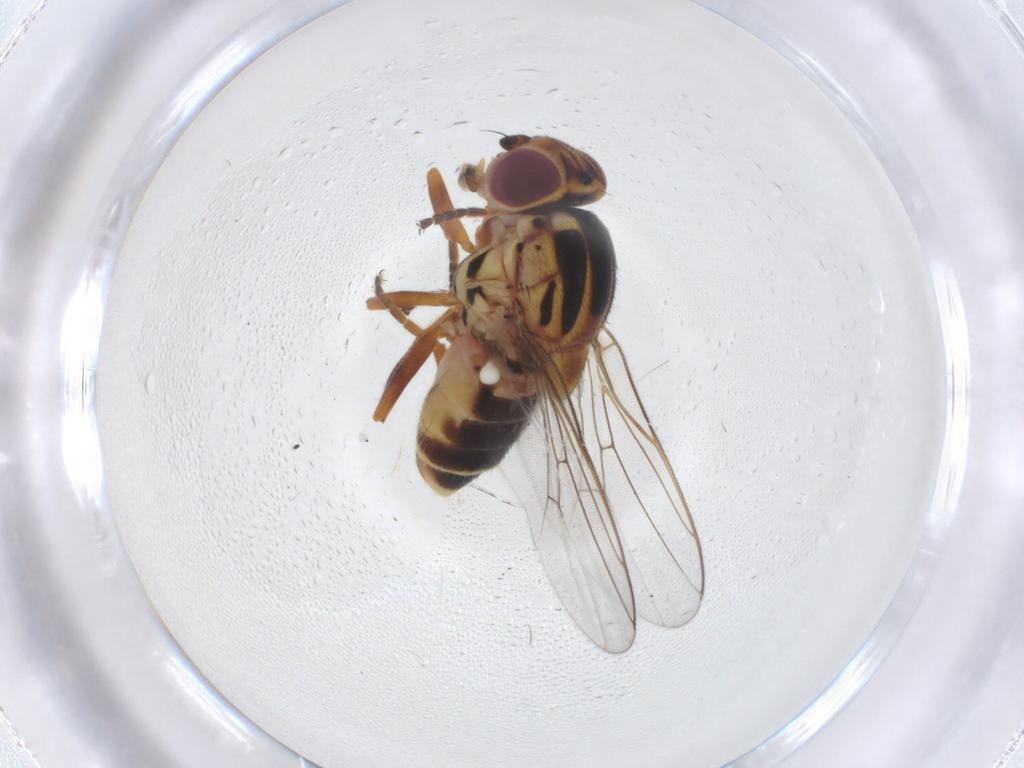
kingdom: Animalia
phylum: Arthropoda
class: Insecta
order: Diptera
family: Chloropidae
